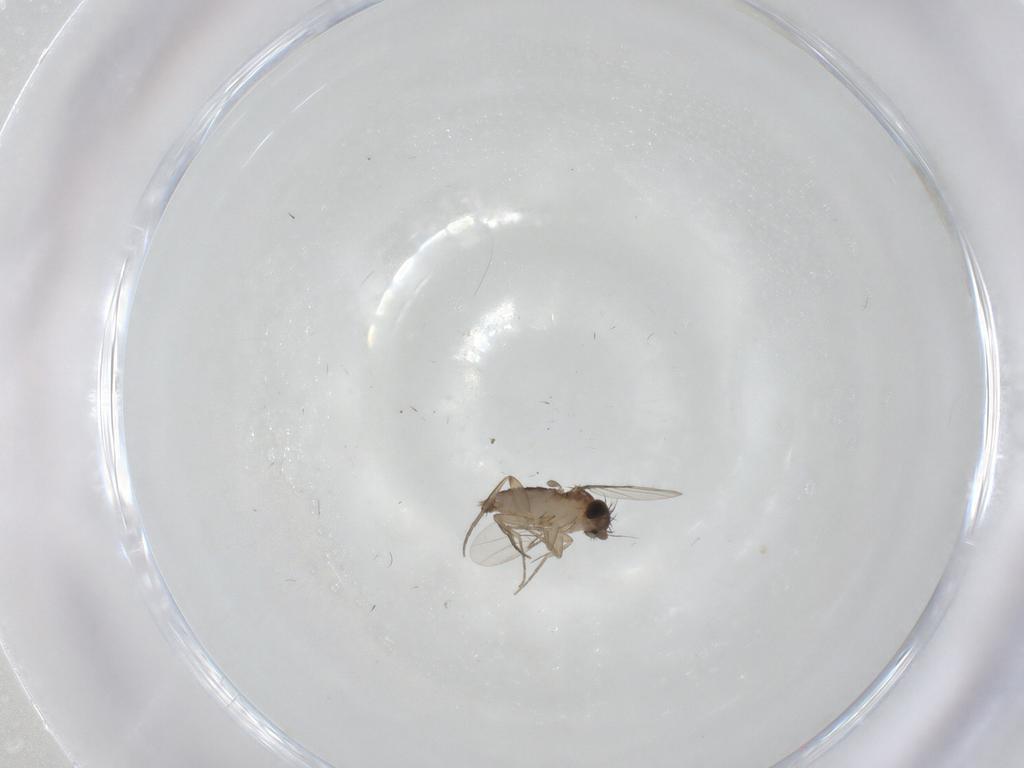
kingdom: Animalia
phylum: Arthropoda
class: Insecta
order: Diptera
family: Phoridae
